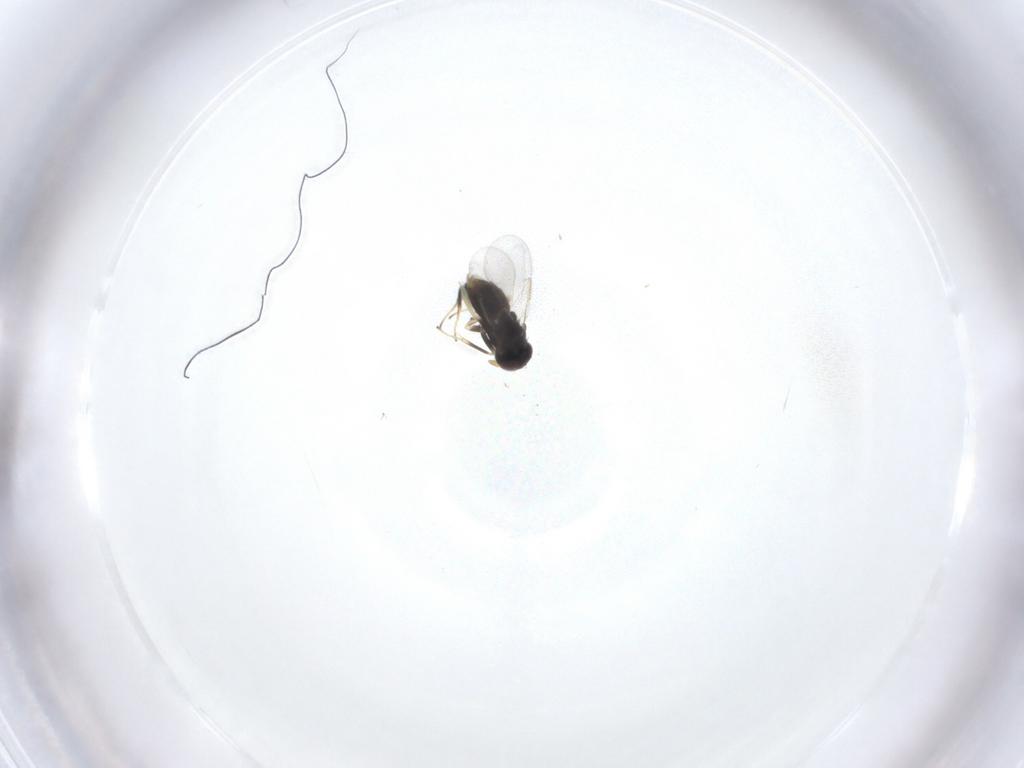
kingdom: Animalia
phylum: Arthropoda
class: Insecta
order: Hymenoptera
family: Aphelinidae
